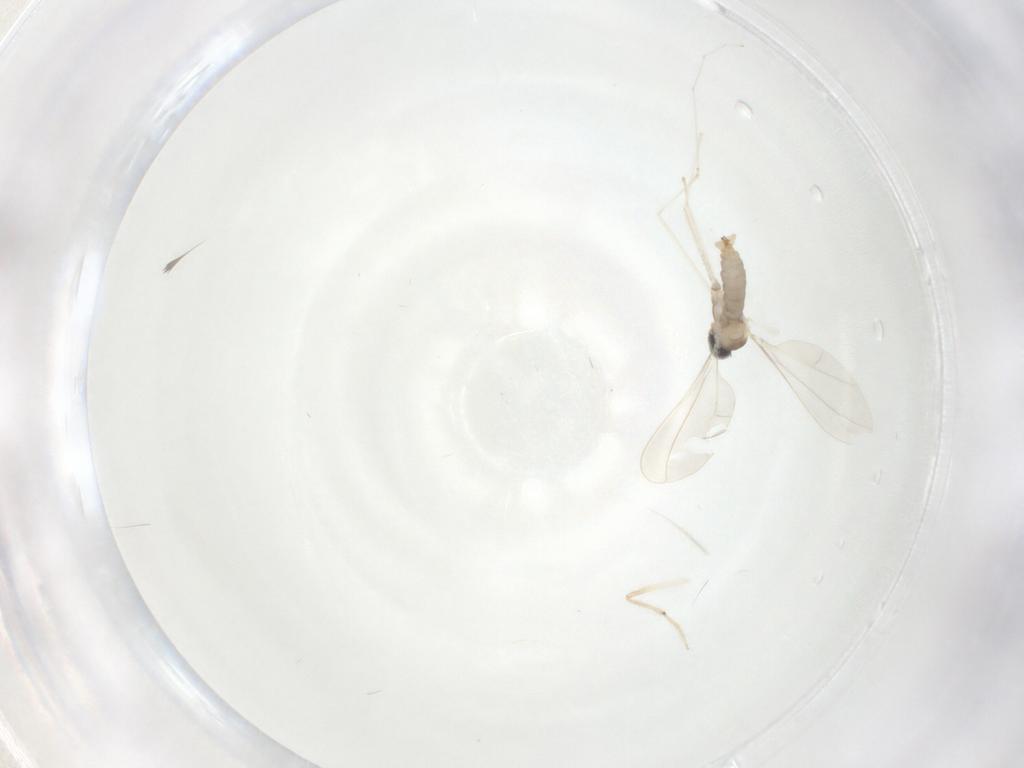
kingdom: Animalia
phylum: Arthropoda
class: Insecta
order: Diptera
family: Cecidomyiidae
